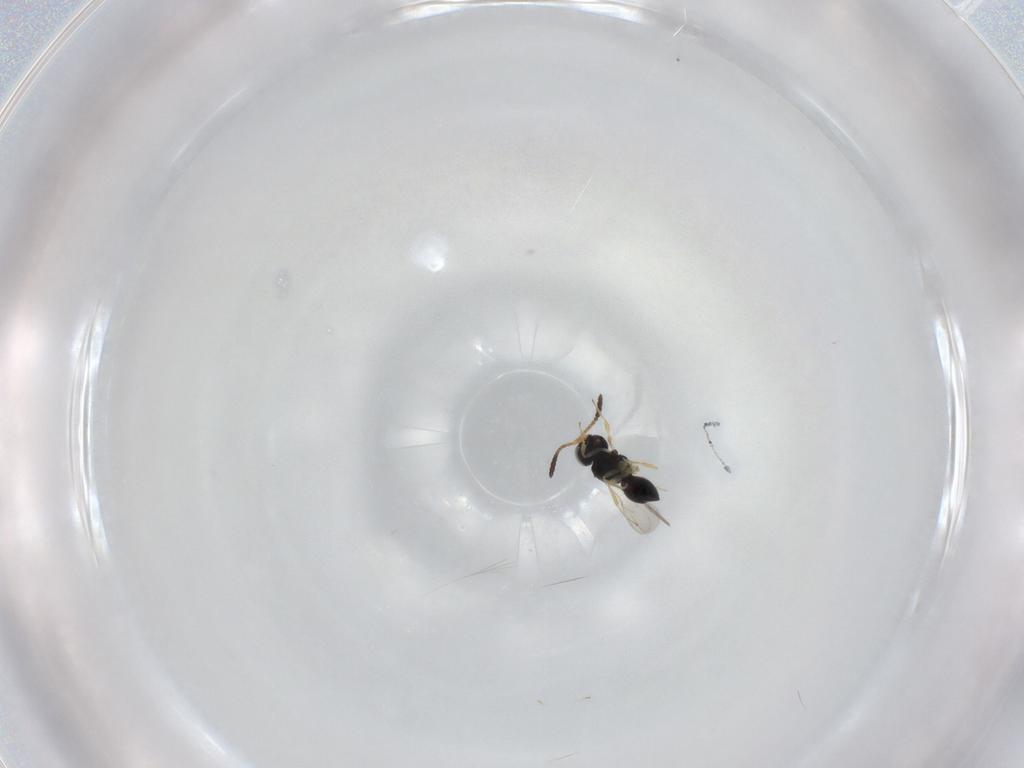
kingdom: Animalia
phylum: Arthropoda
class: Insecta
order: Hymenoptera
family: Scelionidae
